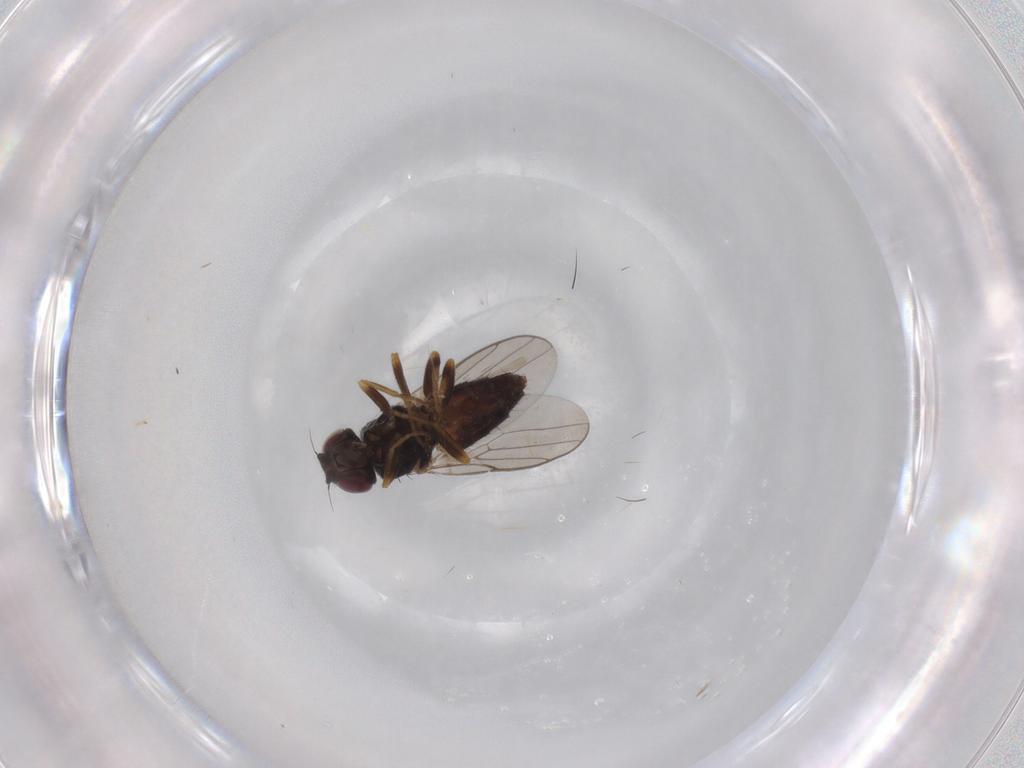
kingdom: Animalia
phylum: Arthropoda
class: Insecta
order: Diptera
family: Chloropidae
